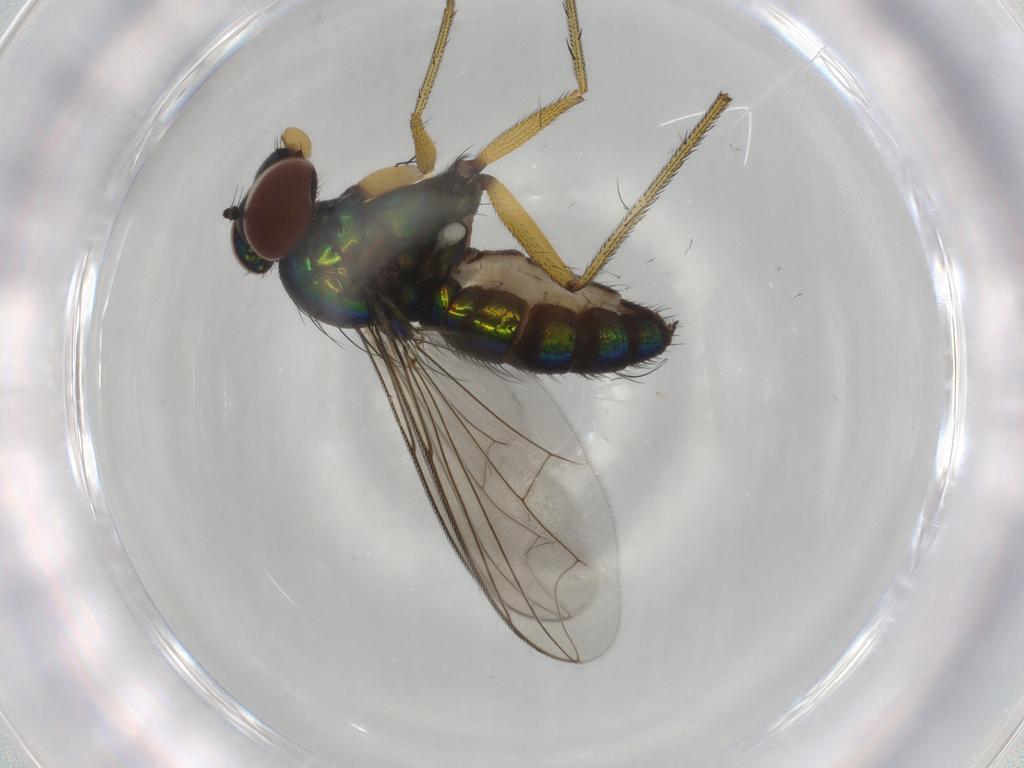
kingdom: Animalia
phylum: Arthropoda
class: Insecta
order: Diptera
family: Dolichopodidae
